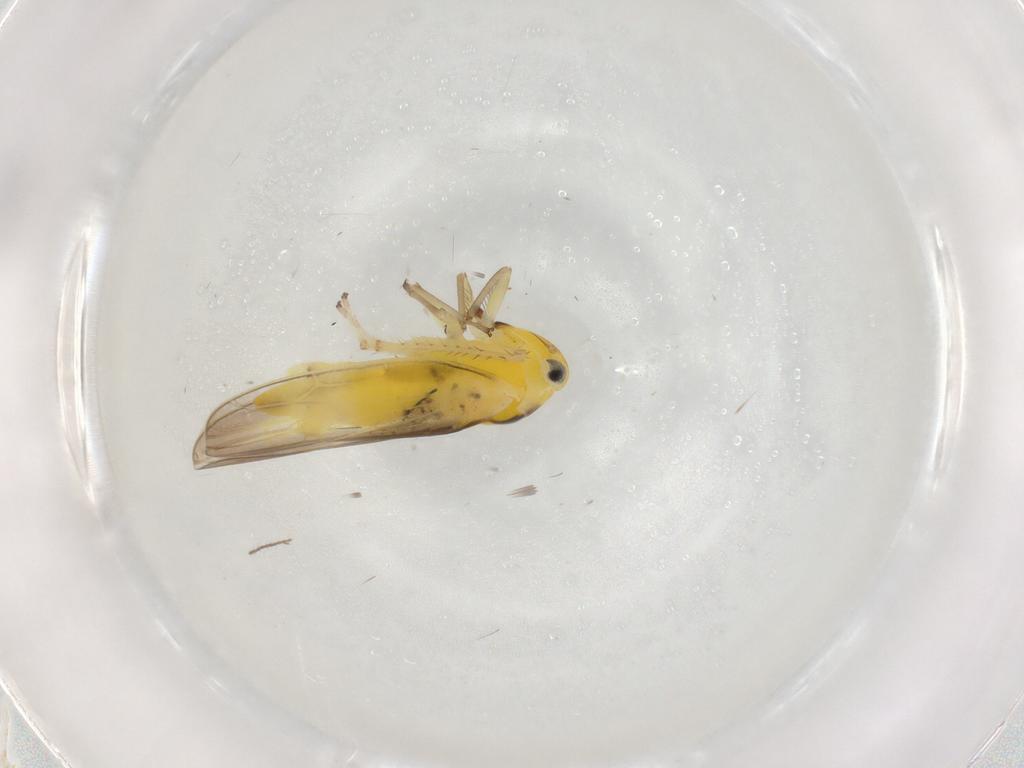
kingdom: Animalia
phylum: Arthropoda
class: Insecta
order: Hemiptera
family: Cicadellidae
